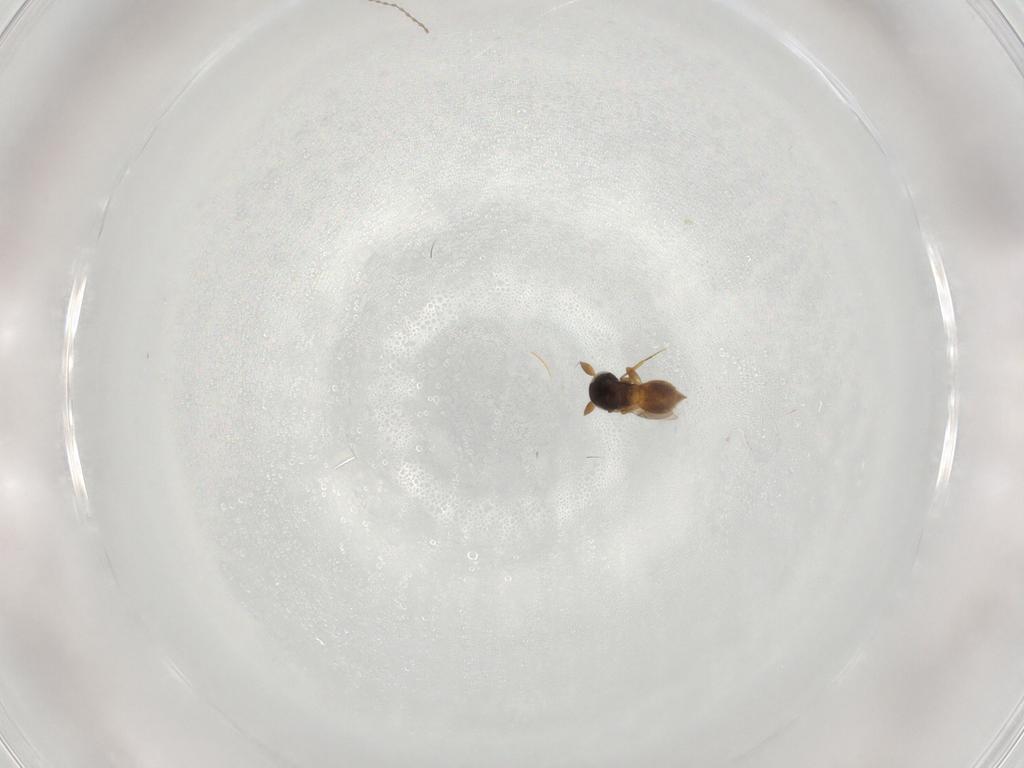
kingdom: Animalia
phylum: Arthropoda
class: Insecta
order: Hymenoptera
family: Scelionidae
